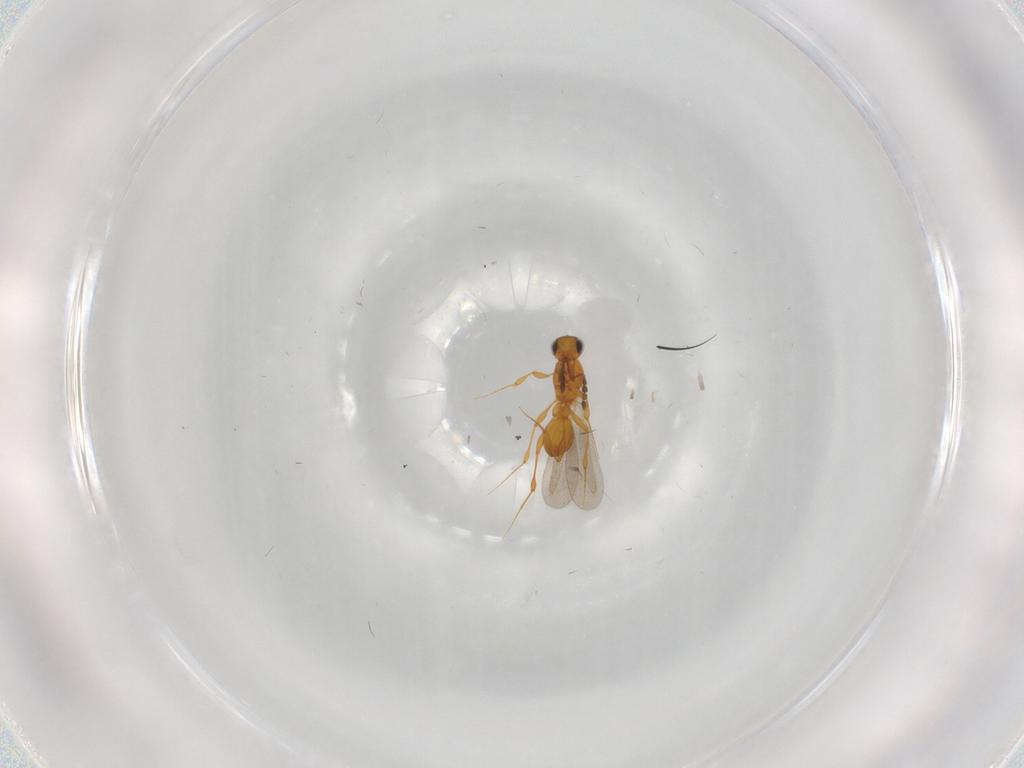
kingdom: Animalia
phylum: Arthropoda
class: Insecta
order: Hymenoptera
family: Platygastridae
